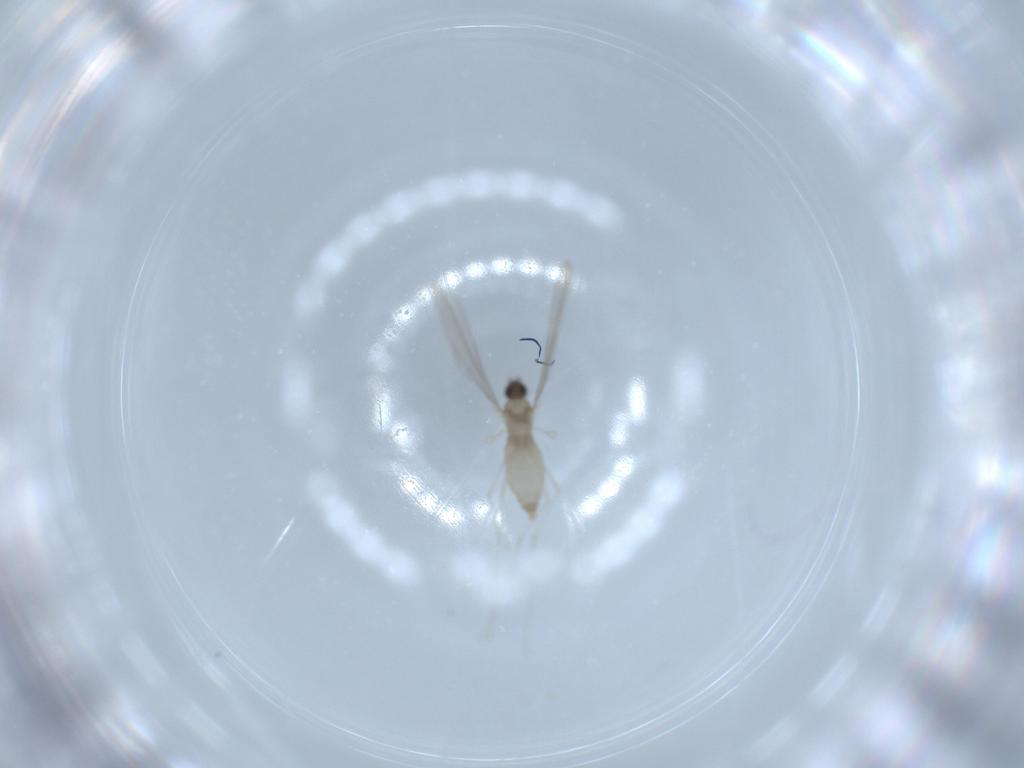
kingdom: Animalia
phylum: Arthropoda
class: Insecta
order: Diptera
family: Cecidomyiidae
